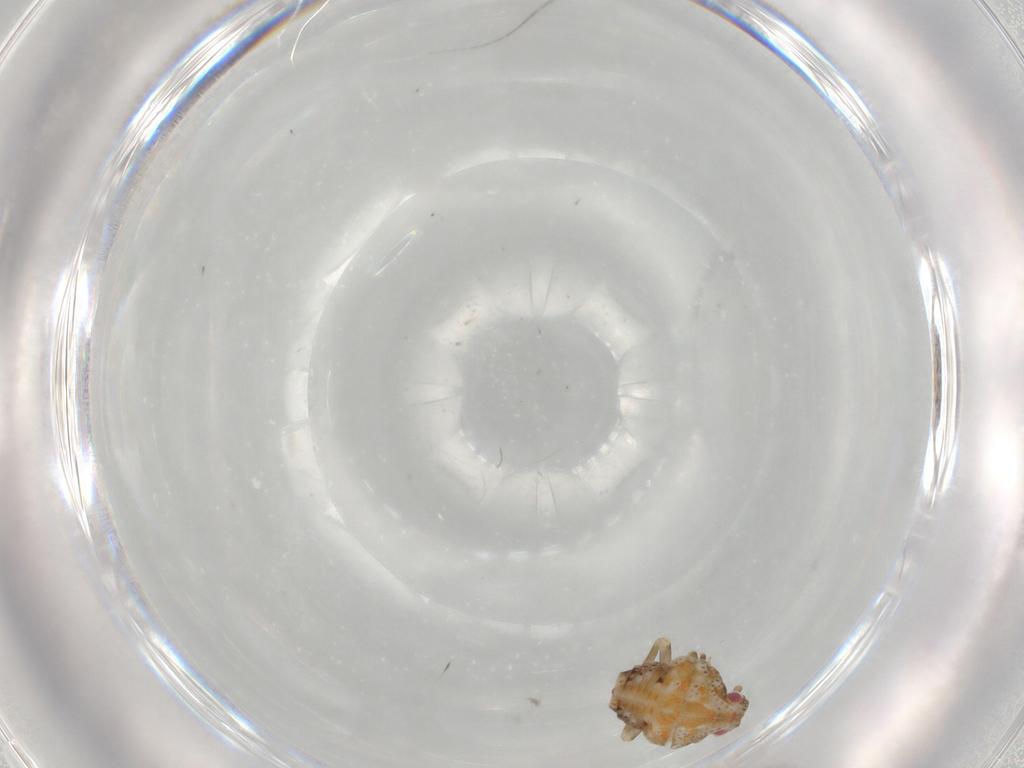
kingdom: Animalia
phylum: Arthropoda
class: Insecta
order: Hemiptera
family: Flatidae
